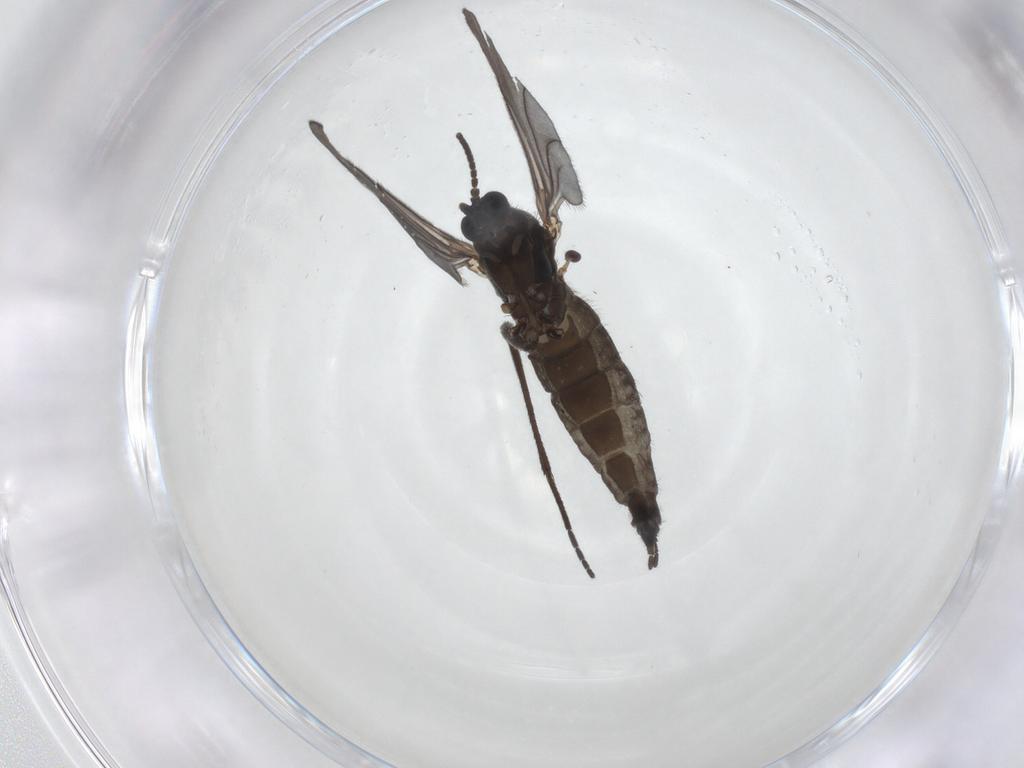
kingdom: Animalia
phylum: Arthropoda
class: Insecta
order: Diptera
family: Sciaridae
